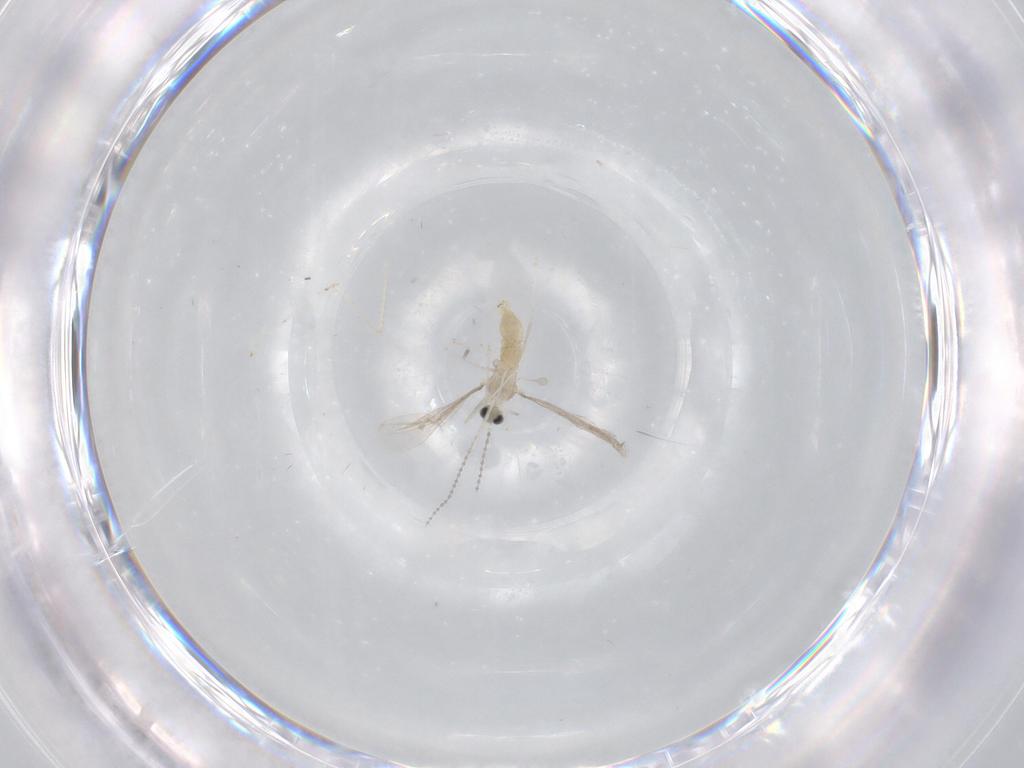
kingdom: Animalia
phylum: Arthropoda
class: Insecta
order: Diptera
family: Cecidomyiidae
